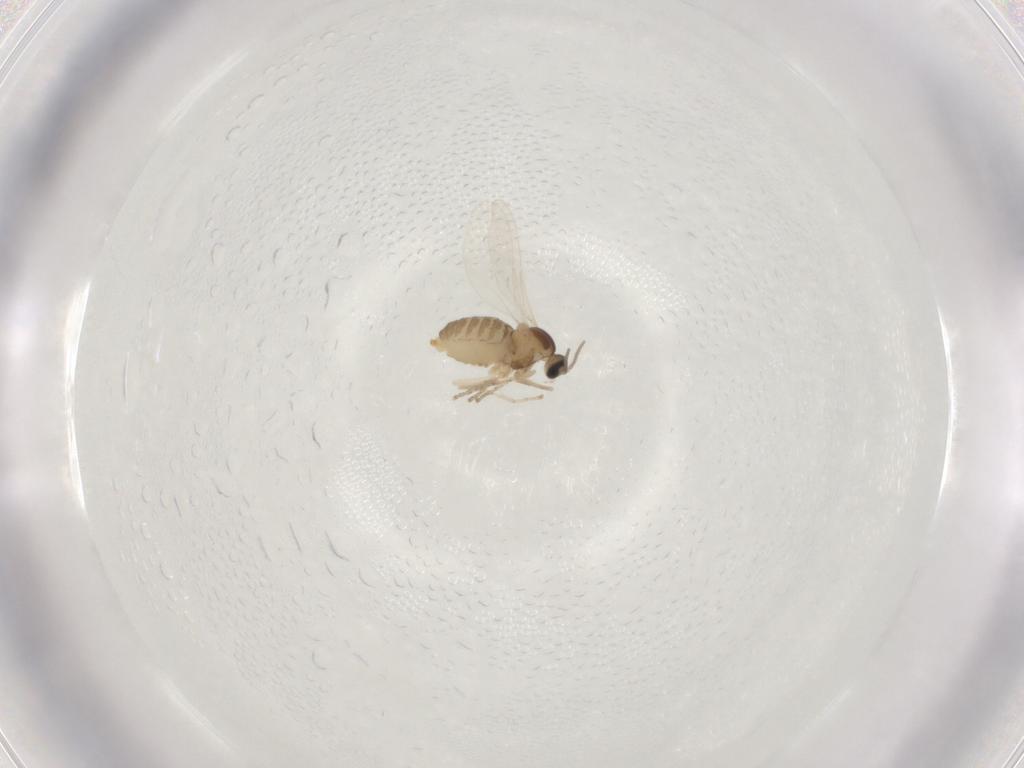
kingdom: Animalia
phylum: Arthropoda
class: Insecta
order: Diptera
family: Cecidomyiidae
